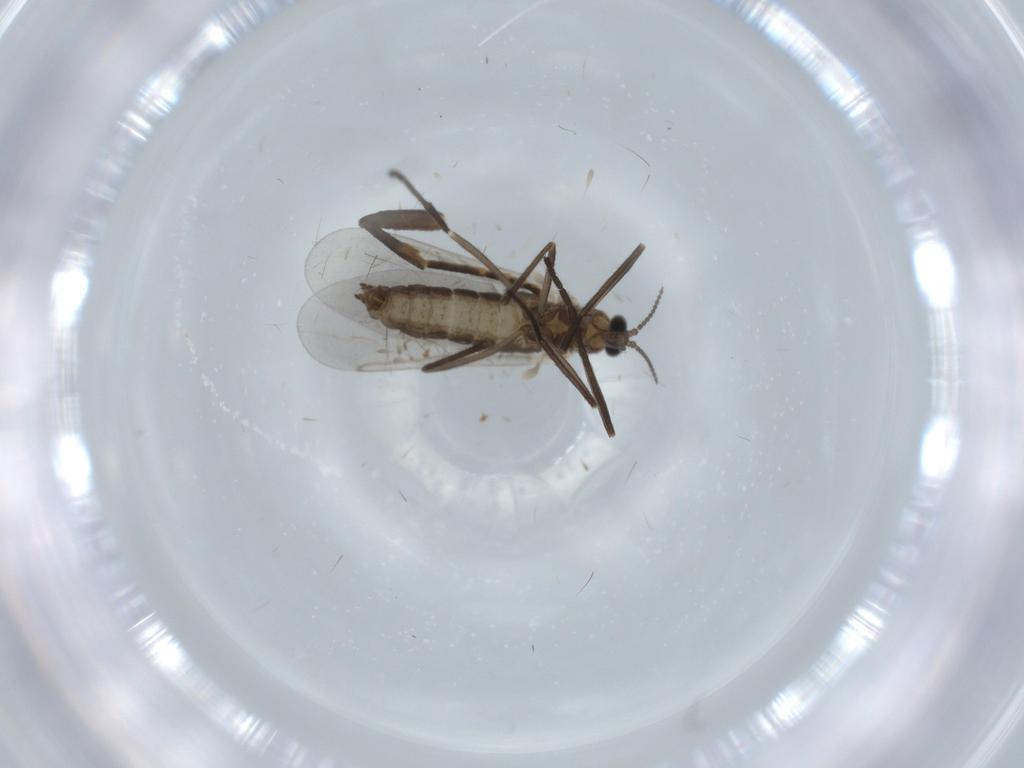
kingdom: Animalia
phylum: Arthropoda
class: Insecta
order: Diptera
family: Cecidomyiidae
